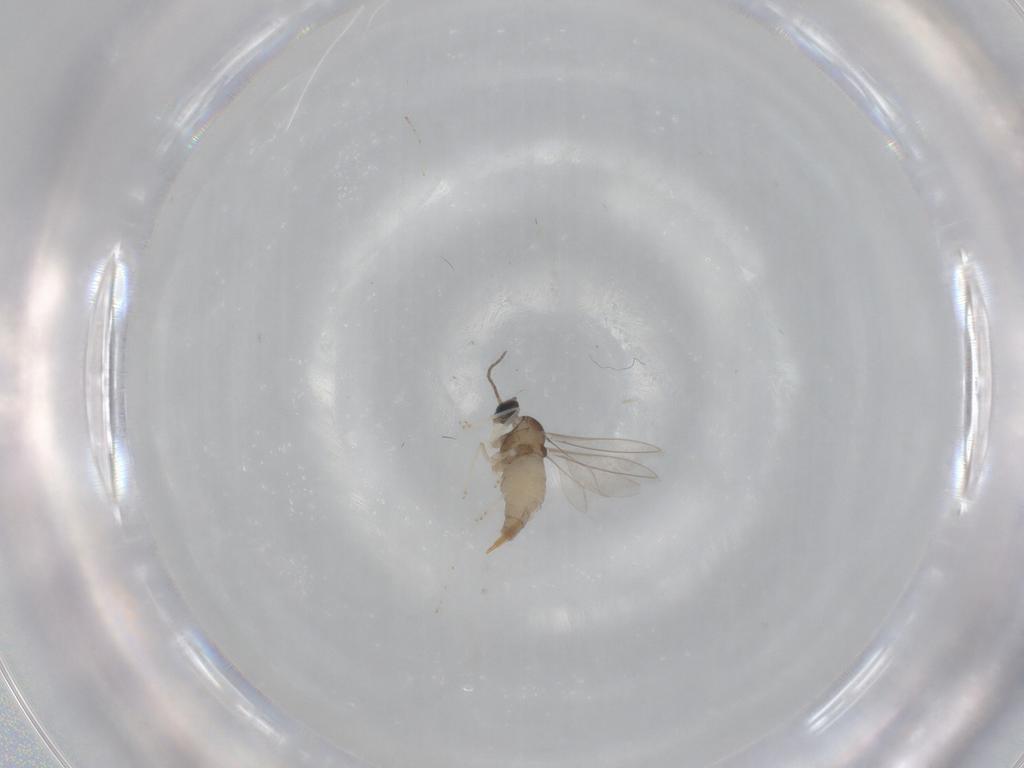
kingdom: Animalia
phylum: Arthropoda
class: Insecta
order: Diptera
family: Cecidomyiidae
